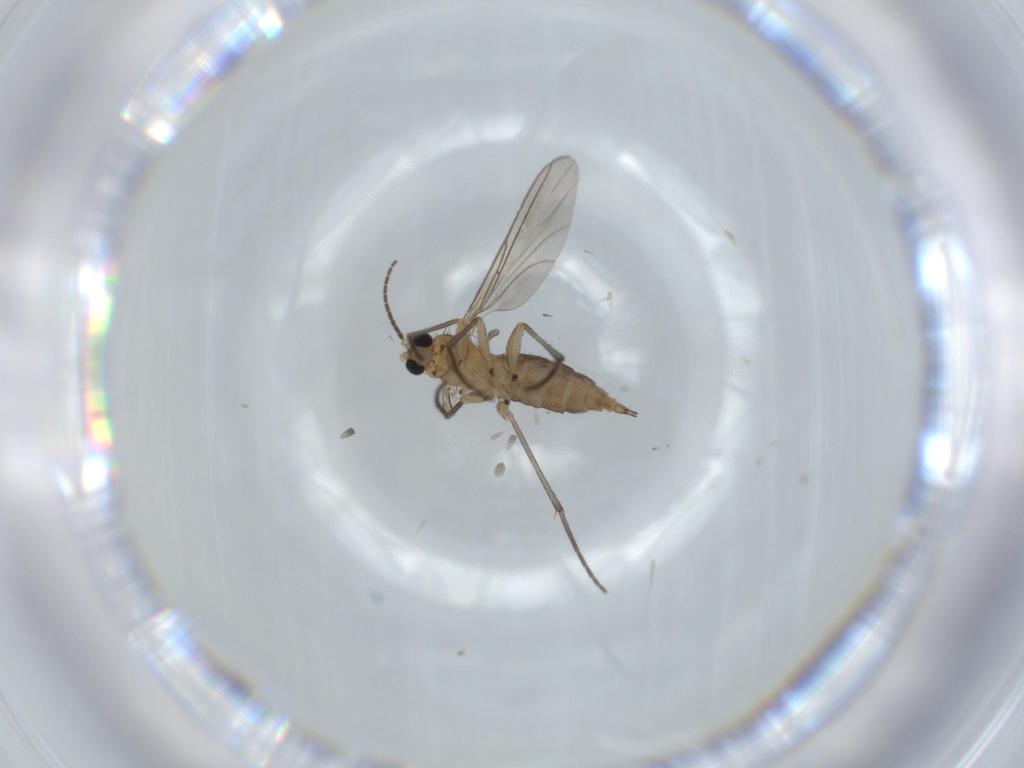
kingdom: Animalia
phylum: Arthropoda
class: Insecta
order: Diptera
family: Sciaridae
